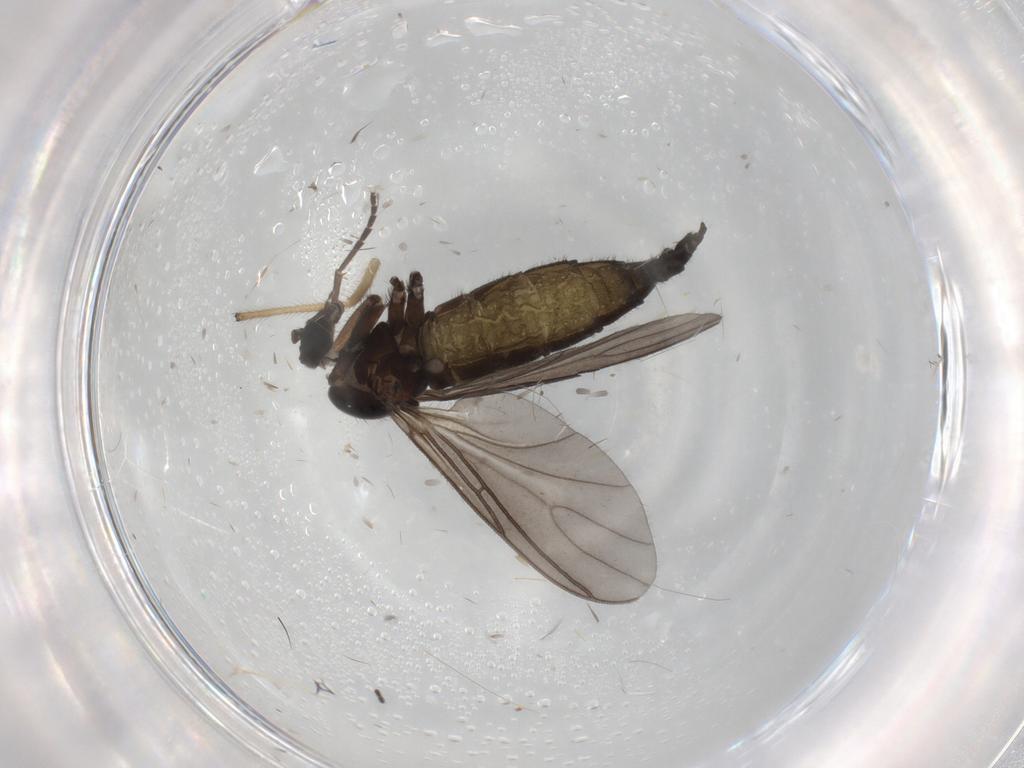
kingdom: Animalia
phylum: Arthropoda
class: Insecta
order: Diptera
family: Sciaridae
